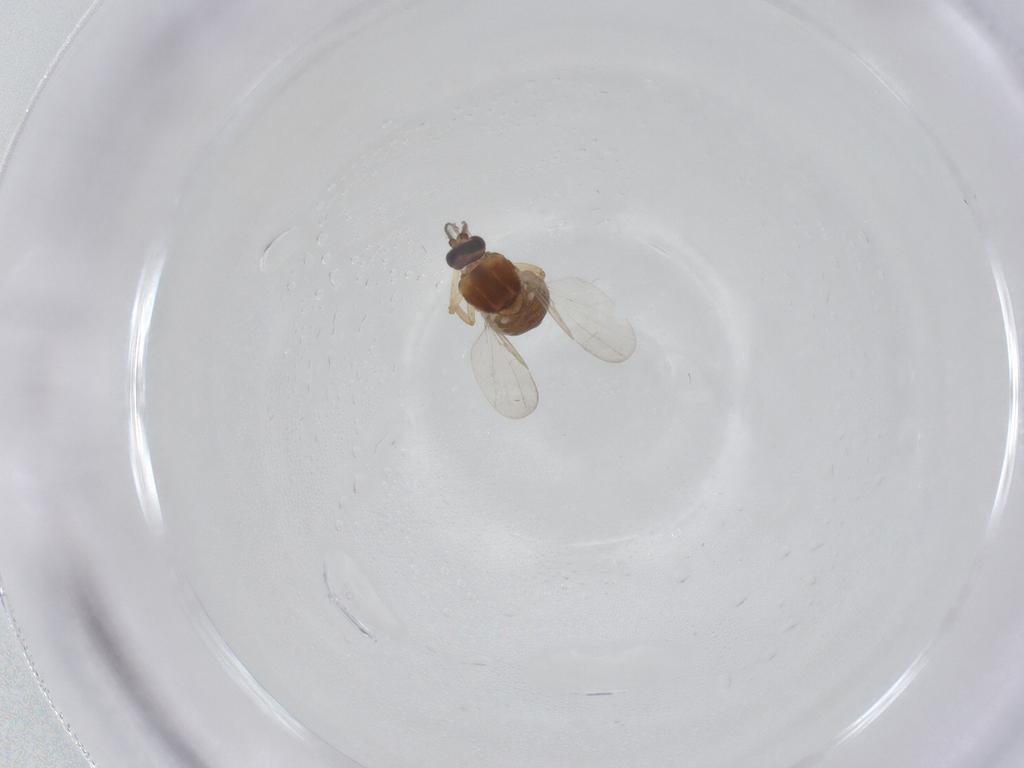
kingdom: Animalia
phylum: Arthropoda
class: Insecta
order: Diptera
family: Ceratopogonidae
